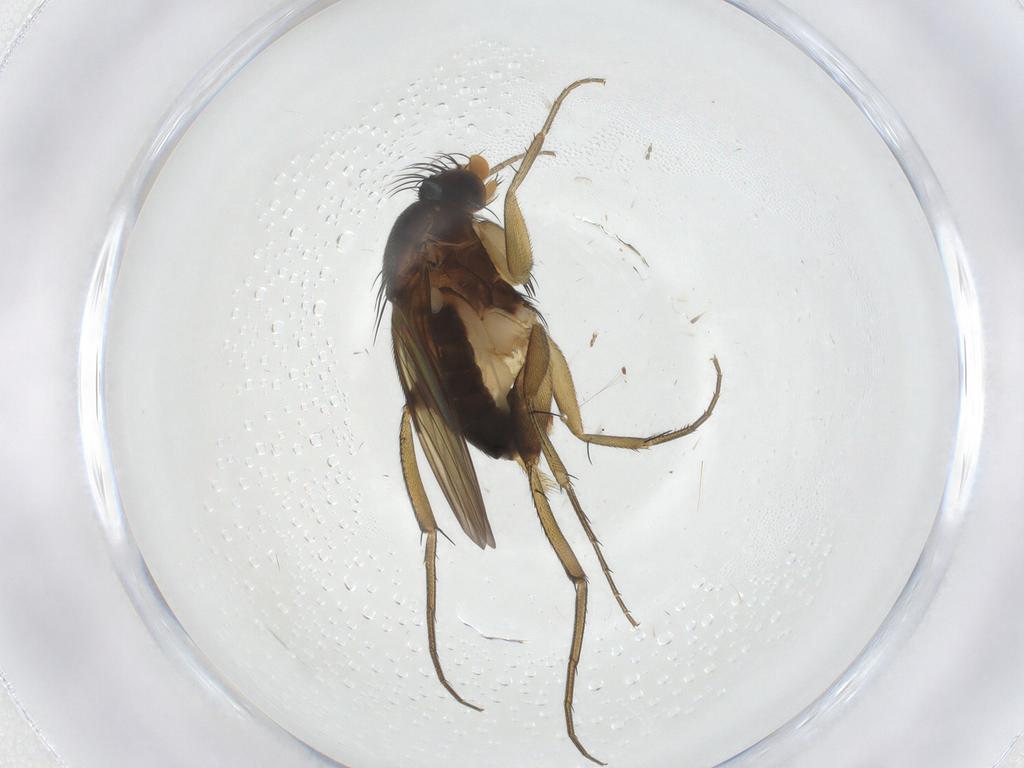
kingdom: Animalia
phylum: Arthropoda
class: Insecta
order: Diptera
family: Phoridae
